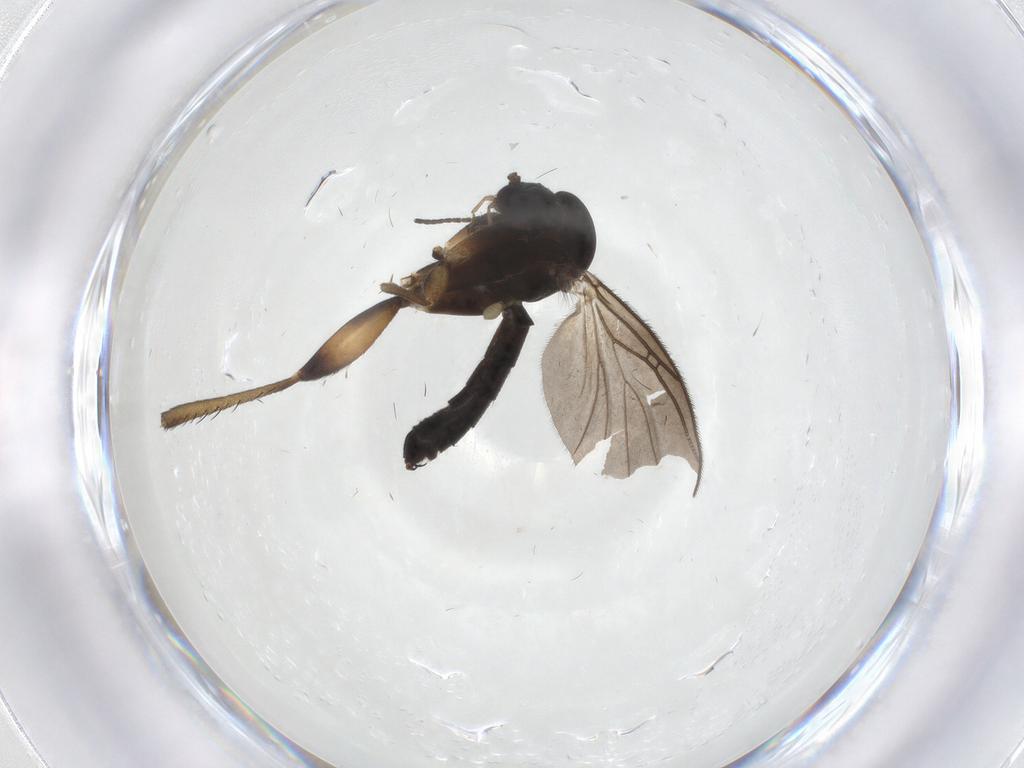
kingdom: Animalia
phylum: Arthropoda
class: Insecta
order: Diptera
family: Sciaridae
